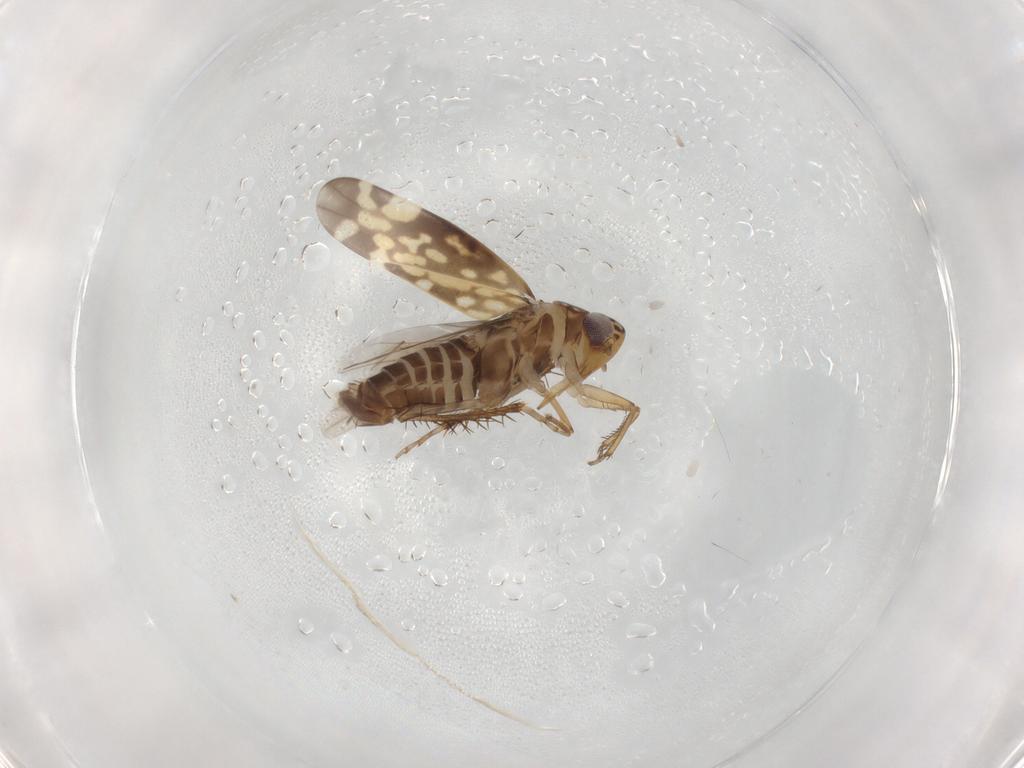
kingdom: Animalia
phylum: Arthropoda
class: Insecta
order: Hemiptera
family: Cicadellidae
